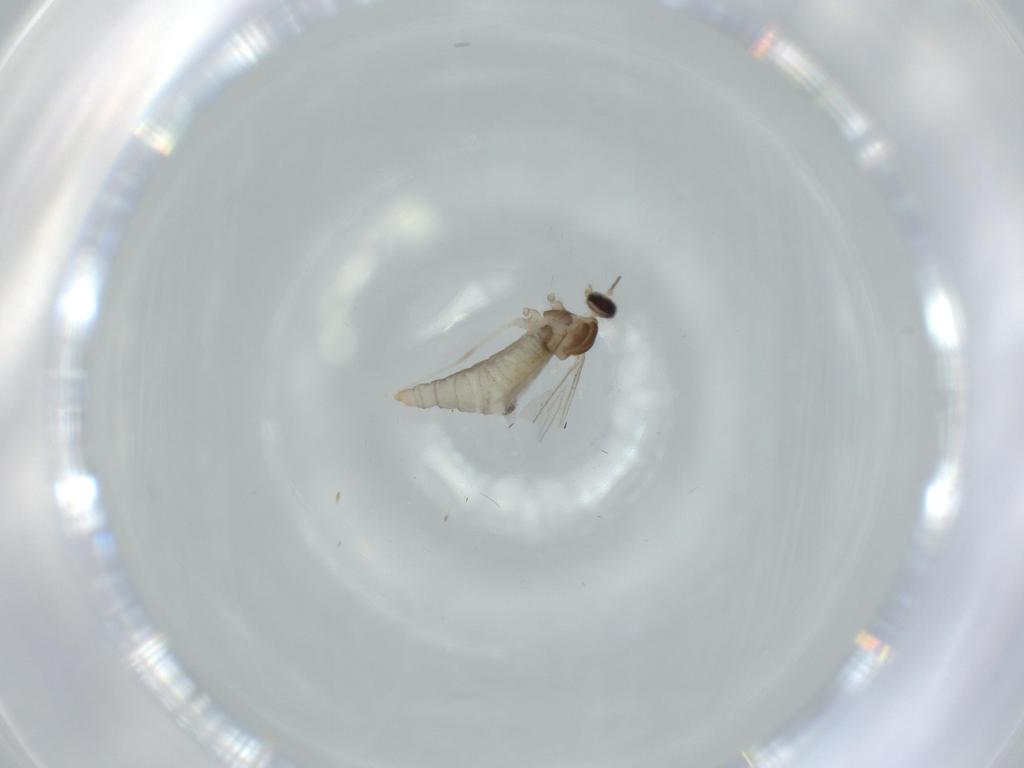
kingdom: Animalia
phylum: Arthropoda
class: Insecta
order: Diptera
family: Cecidomyiidae
